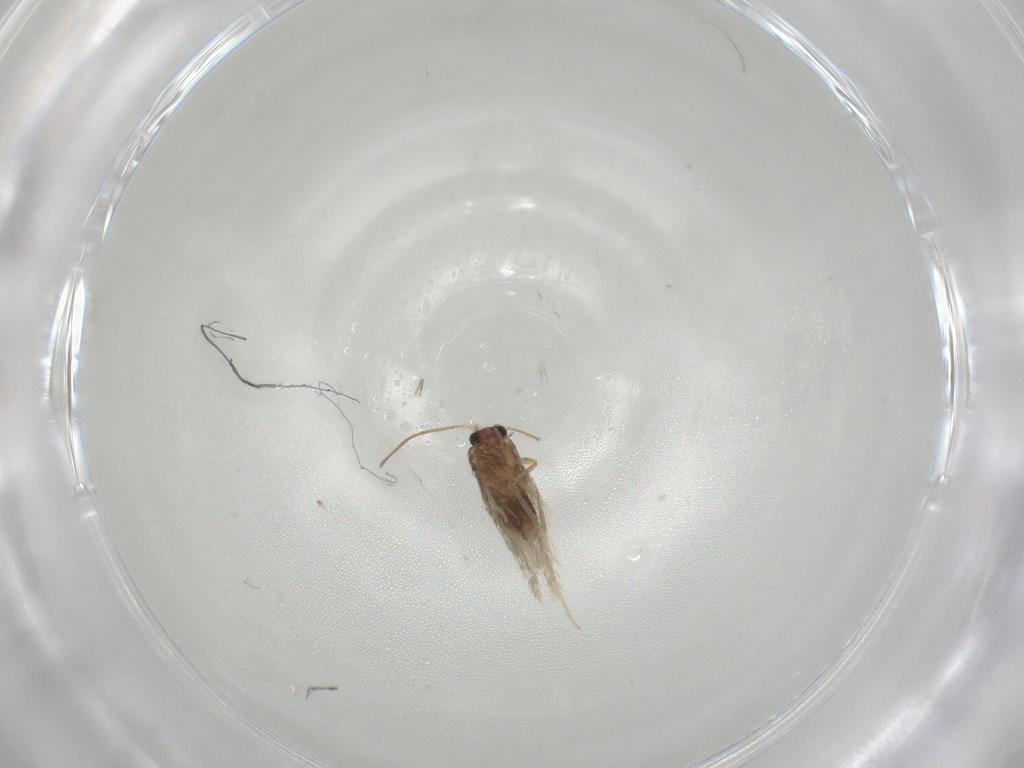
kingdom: Animalia
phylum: Arthropoda
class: Insecta
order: Lepidoptera
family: Nepticulidae
